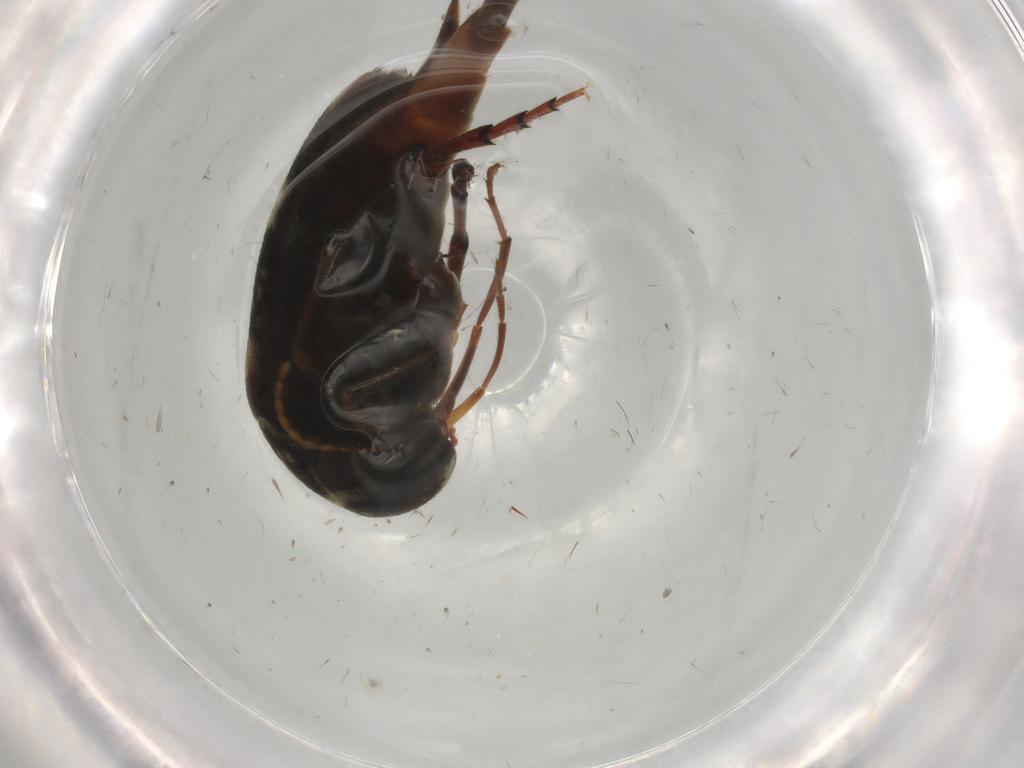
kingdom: Animalia
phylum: Arthropoda
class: Insecta
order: Coleoptera
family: Mordellidae
